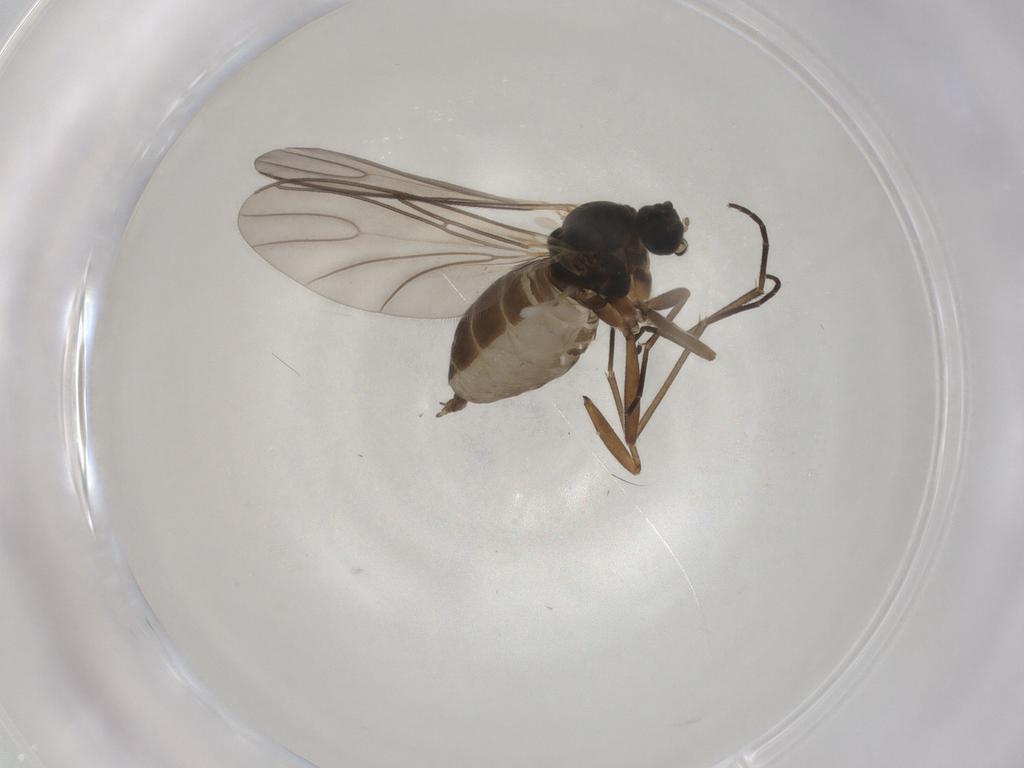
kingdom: Animalia
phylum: Arthropoda
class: Insecta
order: Diptera
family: Sciaridae
